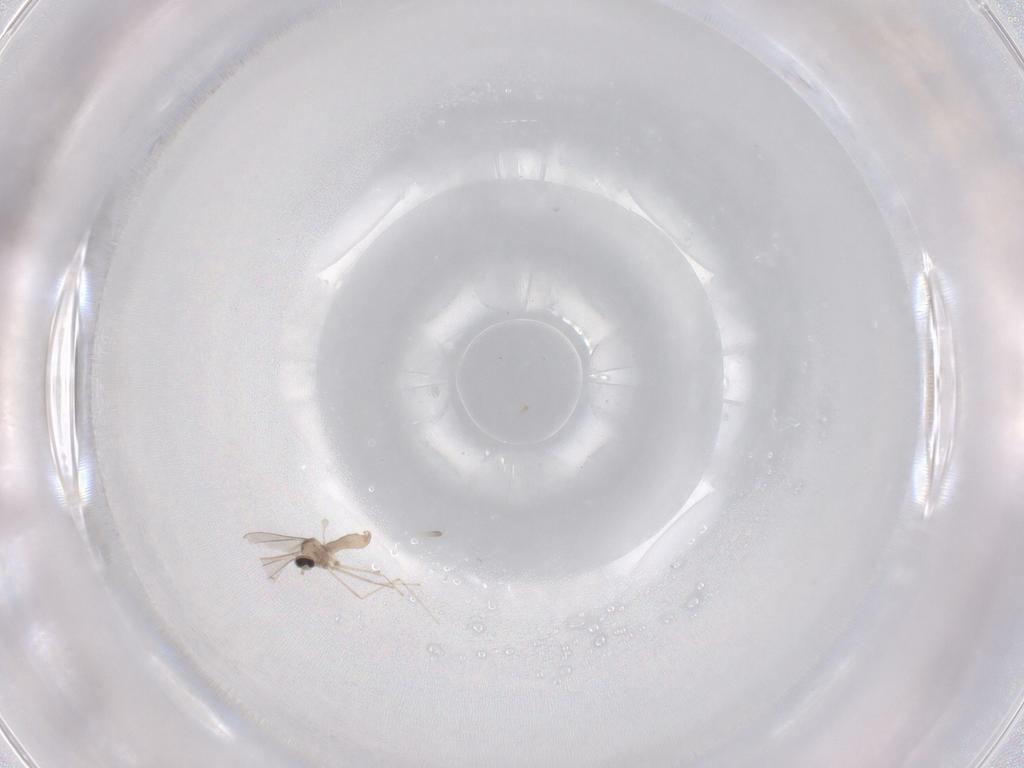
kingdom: Animalia
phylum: Arthropoda
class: Insecta
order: Diptera
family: Cecidomyiidae
